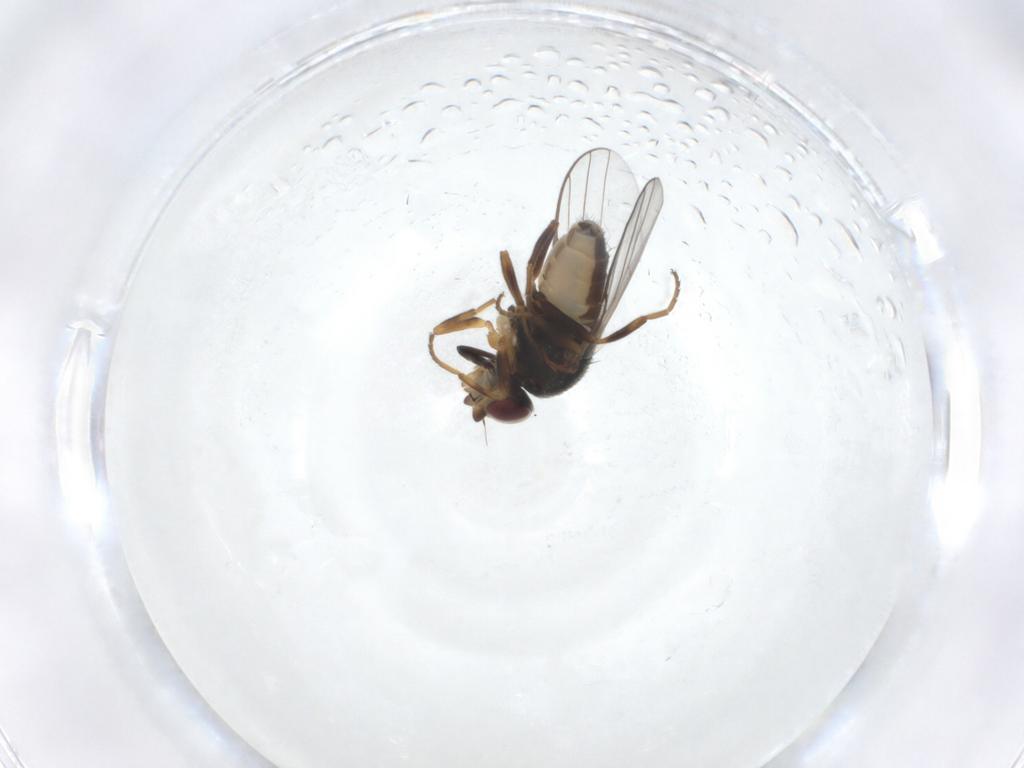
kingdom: Animalia
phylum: Arthropoda
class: Insecta
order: Diptera
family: Chloropidae
